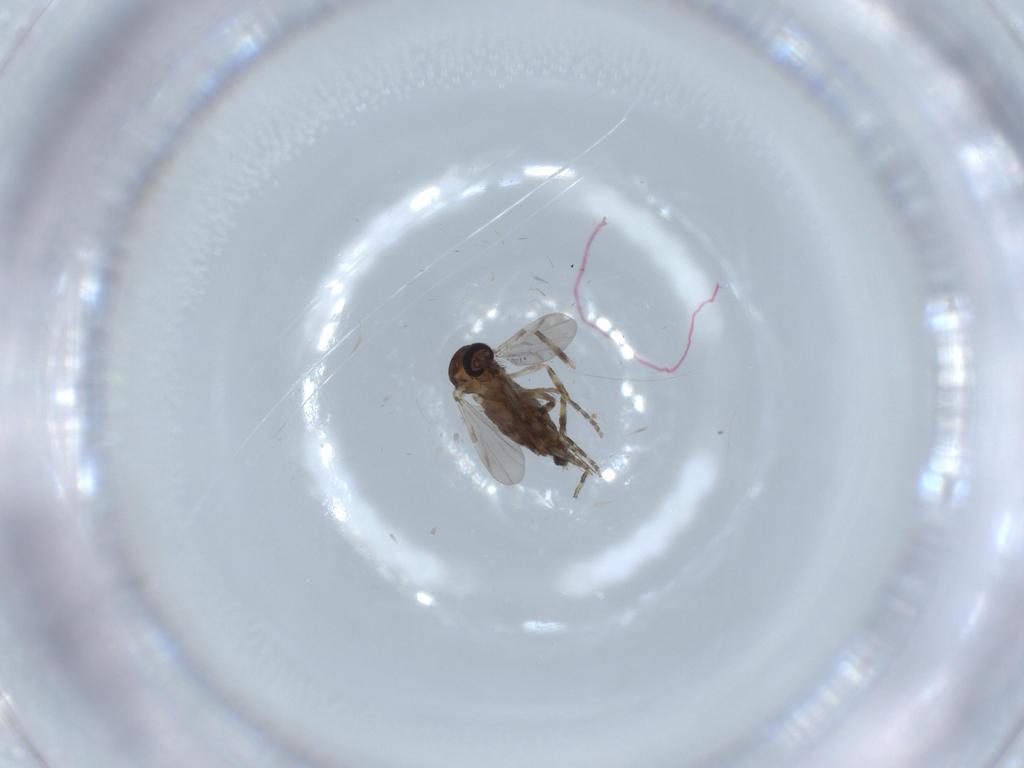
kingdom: Animalia
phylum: Arthropoda
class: Insecta
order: Diptera
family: Ceratopogonidae
